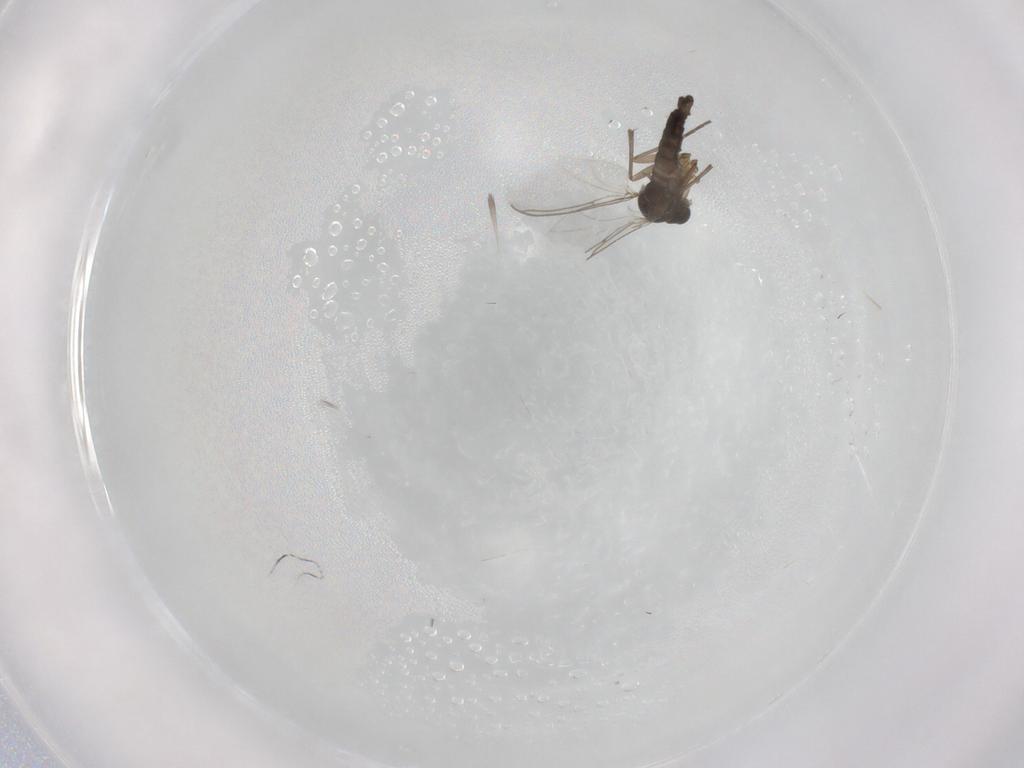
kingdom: Animalia
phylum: Arthropoda
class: Insecta
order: Diptera
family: Sciaridae
